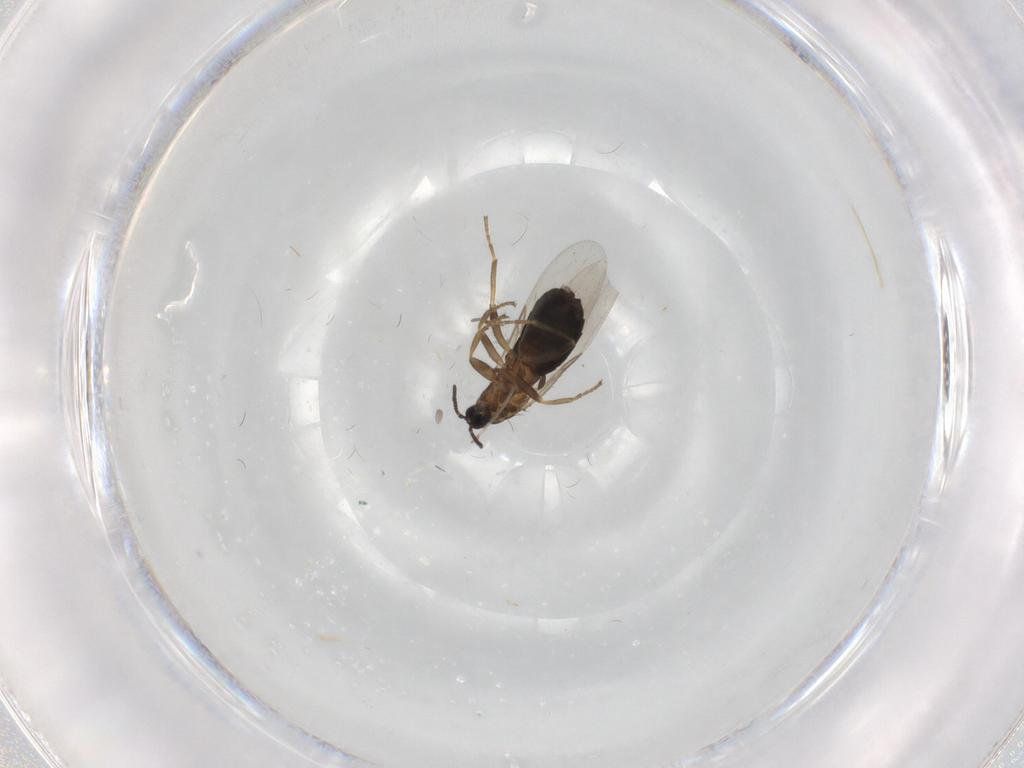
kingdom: Animalia
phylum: Arthropoda
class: Insecta
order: Diptera
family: Scatopsidae
